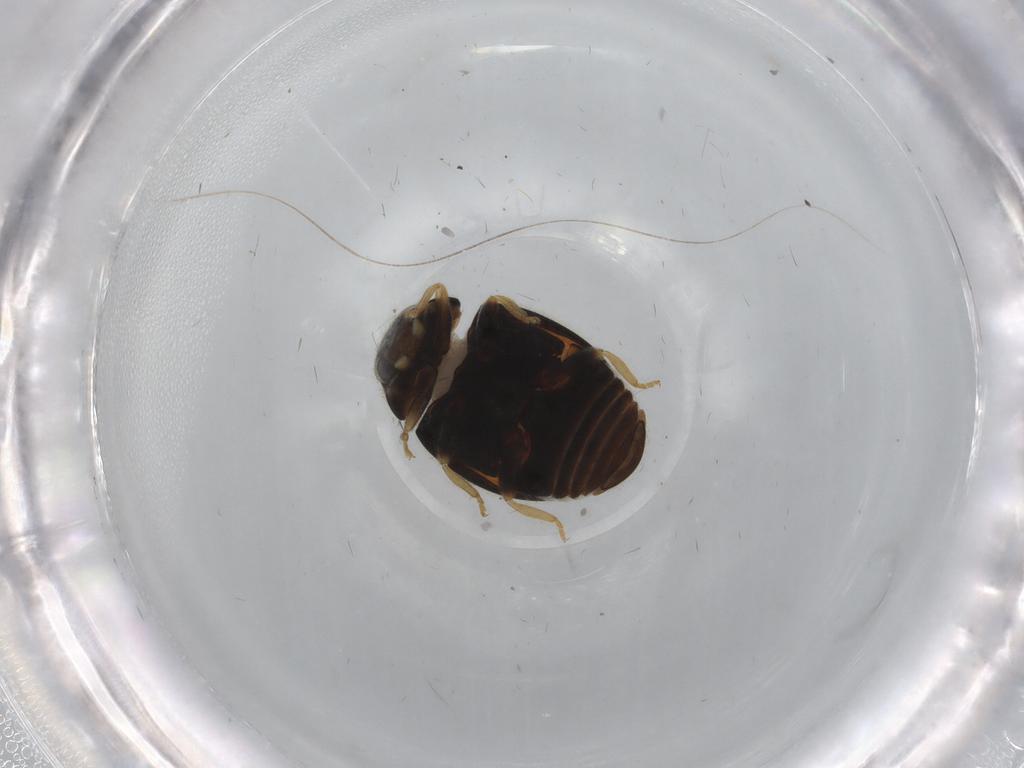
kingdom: Animalia
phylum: Arthropoda
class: Insecta
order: Coleoptera
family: Coccinellidae
